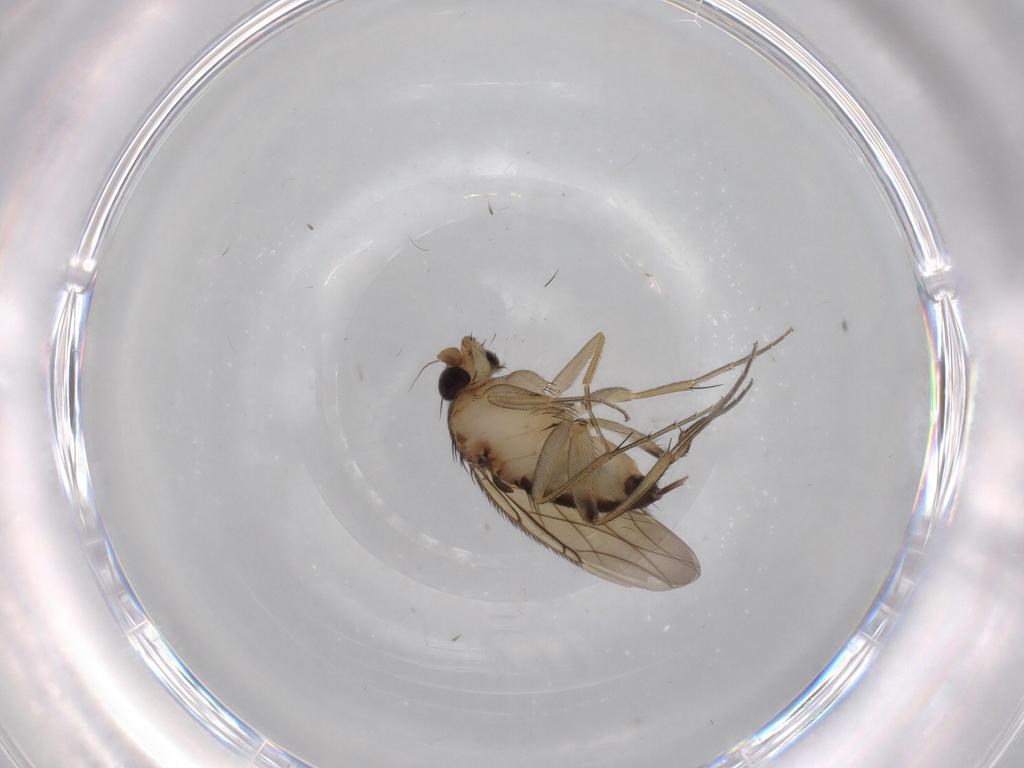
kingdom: Animalia
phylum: Arthropoda
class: Insecta
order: Diptera
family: Phoridae
